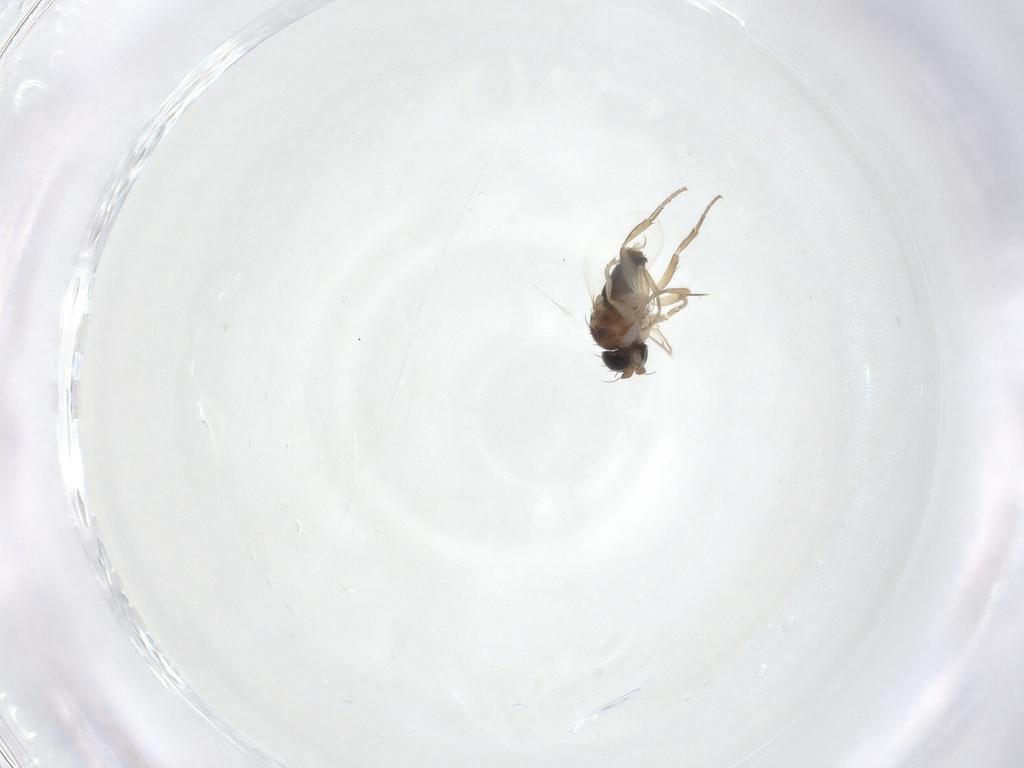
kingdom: Animalia
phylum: Arthropoda
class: Insecta
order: Diptera
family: Phoridae
